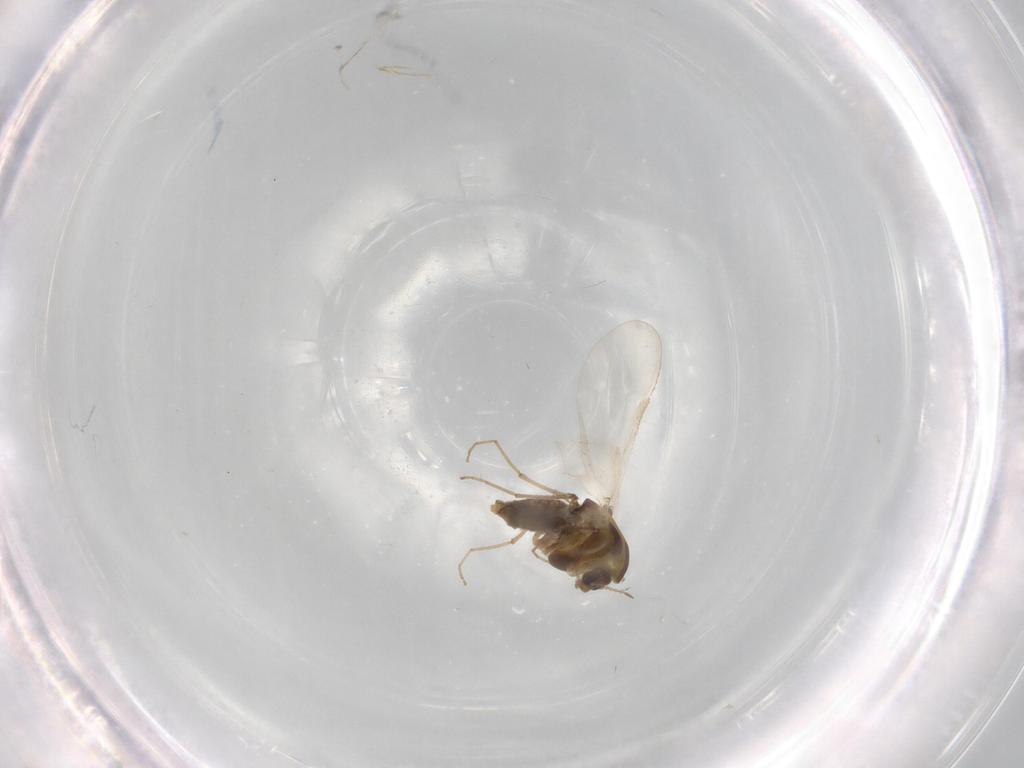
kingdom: Animalia
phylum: Arthropoda
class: Insecta
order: Diptera
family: Chironomidae
